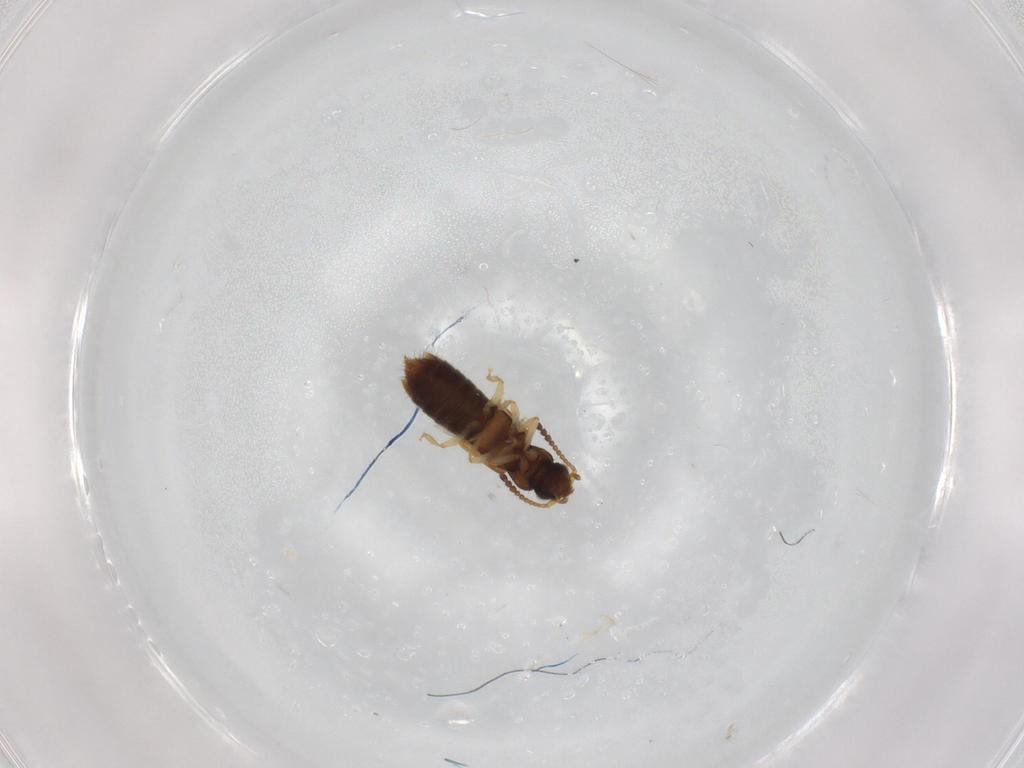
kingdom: Animalia
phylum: Arthropoda
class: Insecta
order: Coleoptera
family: Staphylinidae
